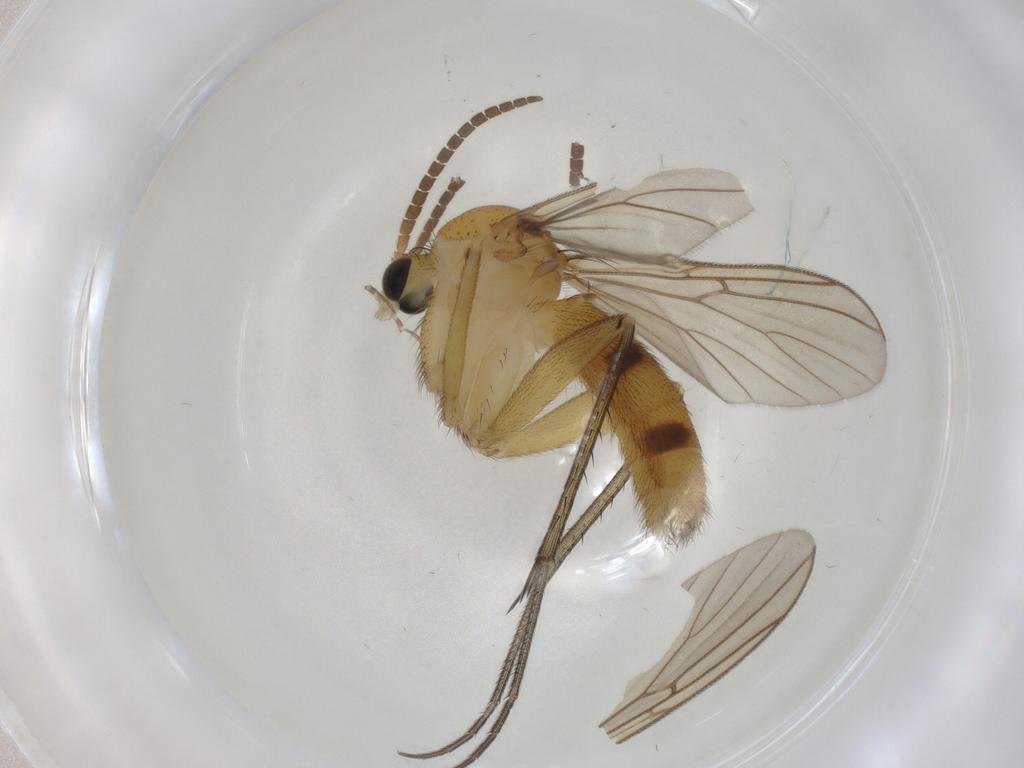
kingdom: Animalia
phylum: Arthropoda
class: Insecta
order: Diptera
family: Mycetophilidae
